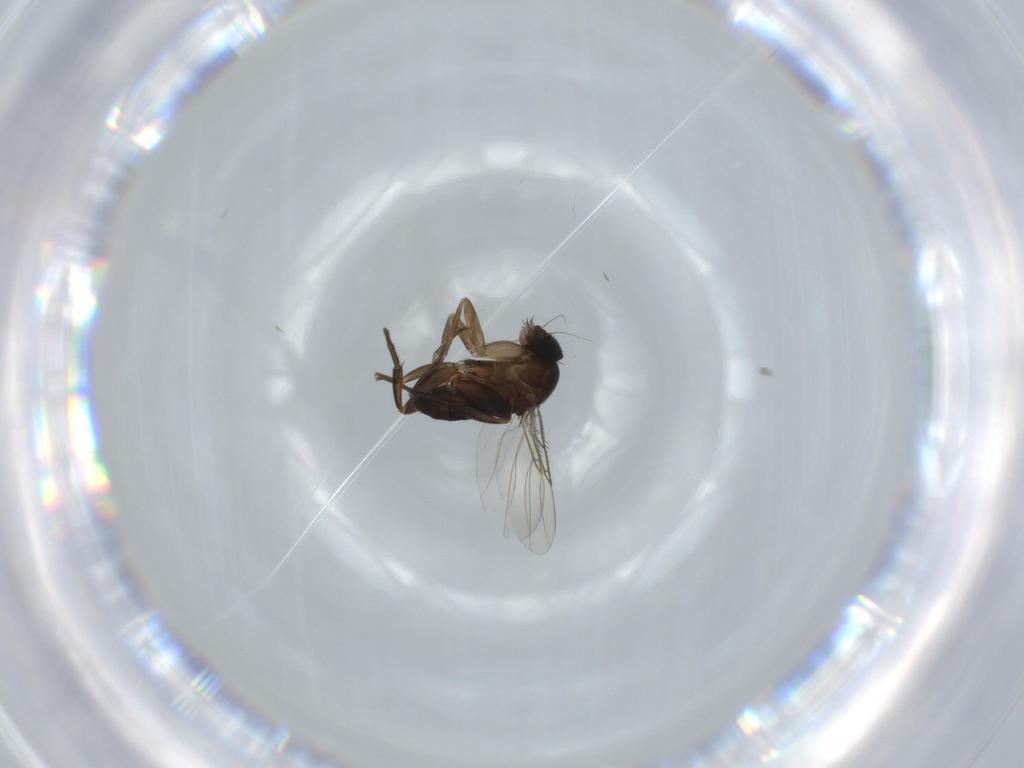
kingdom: Animalia
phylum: Arthropoda
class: Insecta
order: Diptera
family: Phoridae
